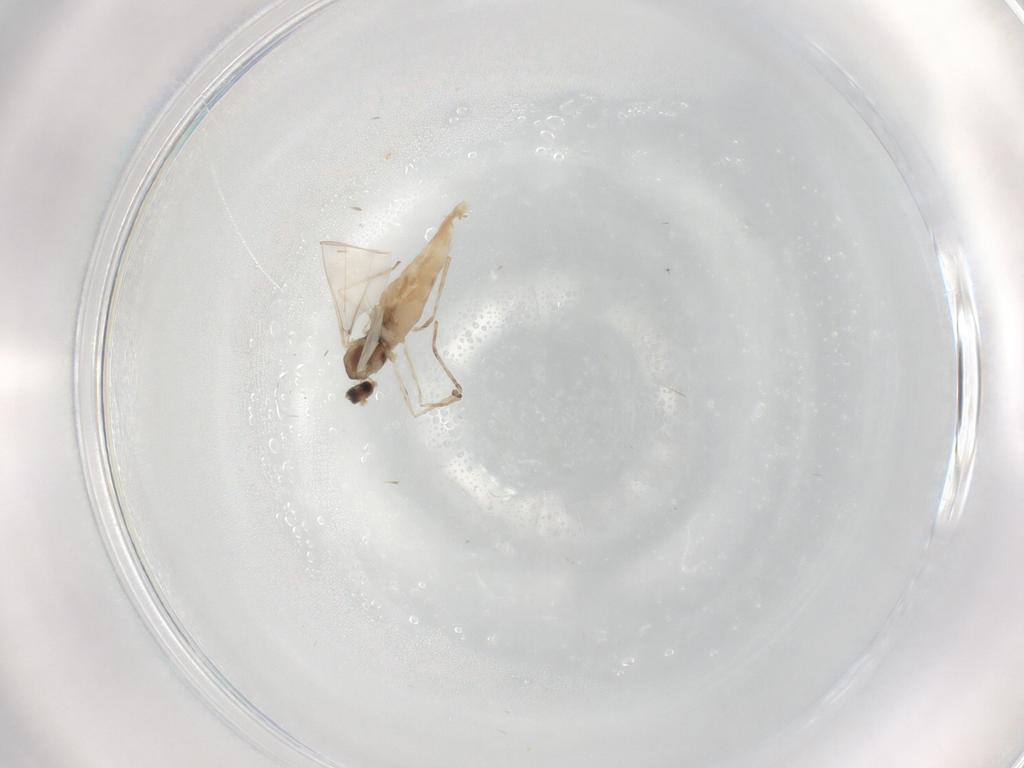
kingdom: Animalia
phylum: Arthropoda
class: Insecta
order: Diptera
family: Cecidomyiidae
